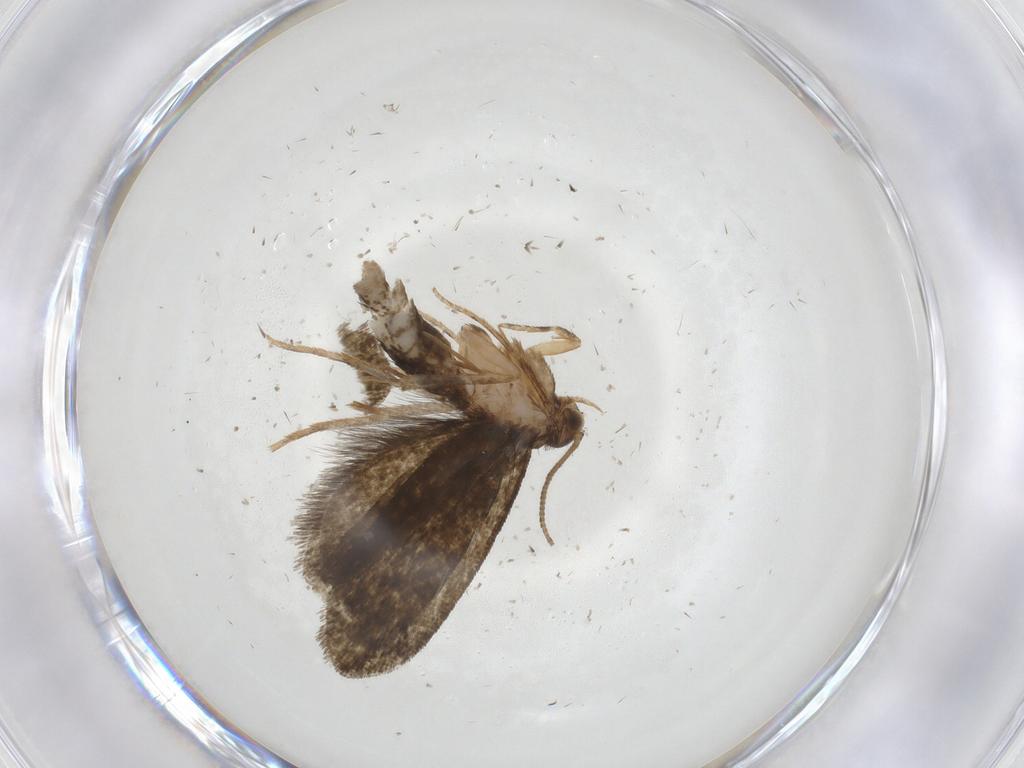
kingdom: Animalia
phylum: Arthropoda
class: Insecta
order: Lepidoptera
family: Tineidae
